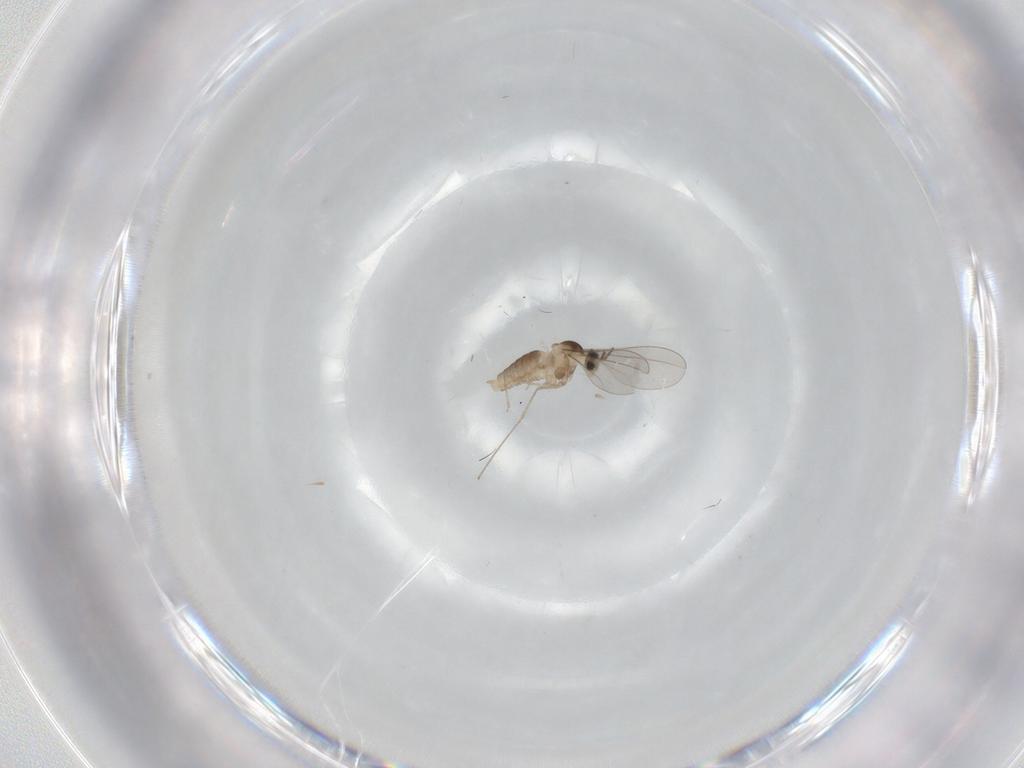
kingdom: Animalia
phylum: Arthropoda
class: Insecta
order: Diptera
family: Cecidomyiidae
